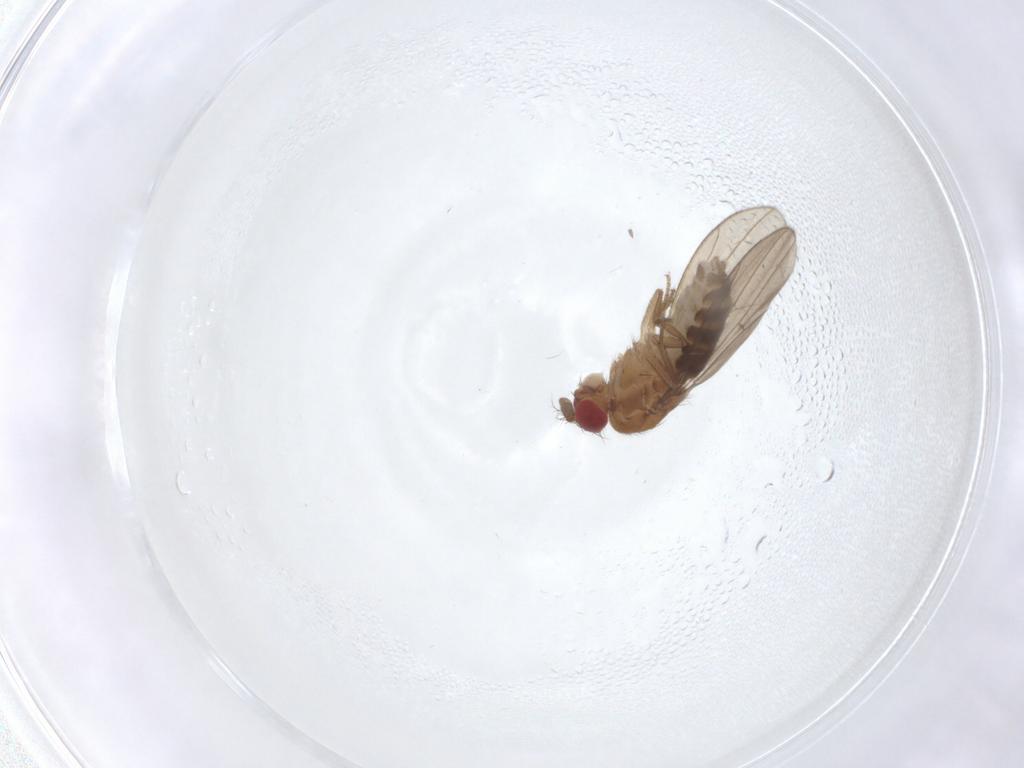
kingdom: Animalia
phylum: Arthropoda
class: Insecta
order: Diptera
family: Drosophilidae
